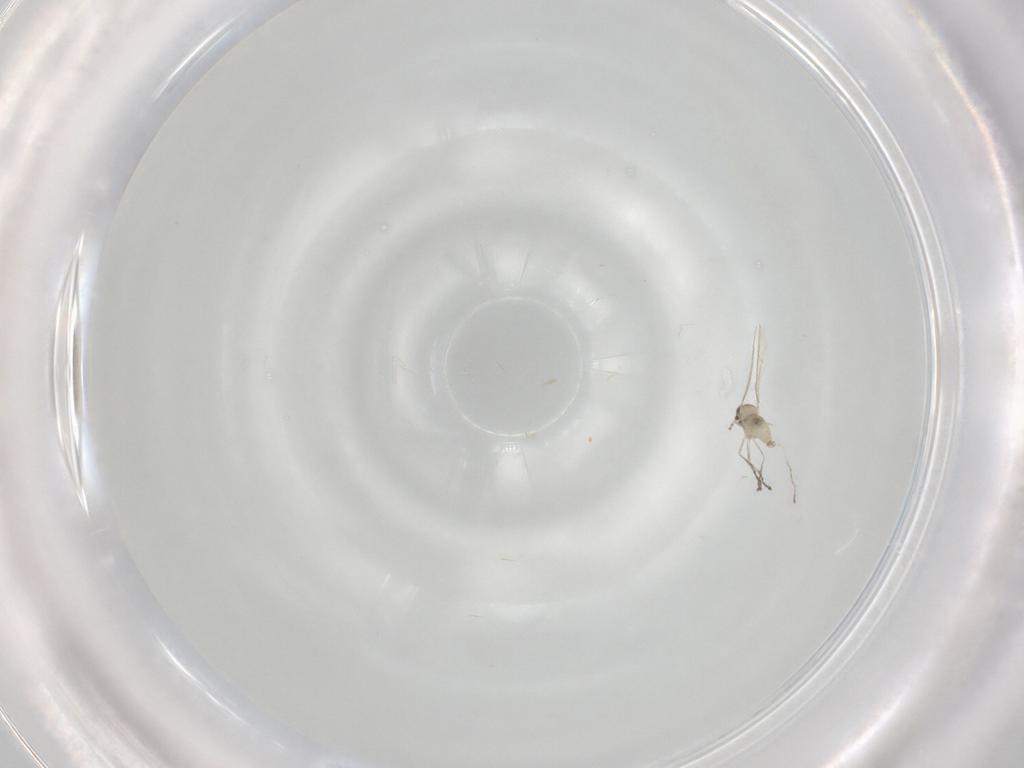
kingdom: Animalia
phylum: Arthropoda
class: Insecta
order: Diptera
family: Cecidomyiidae
